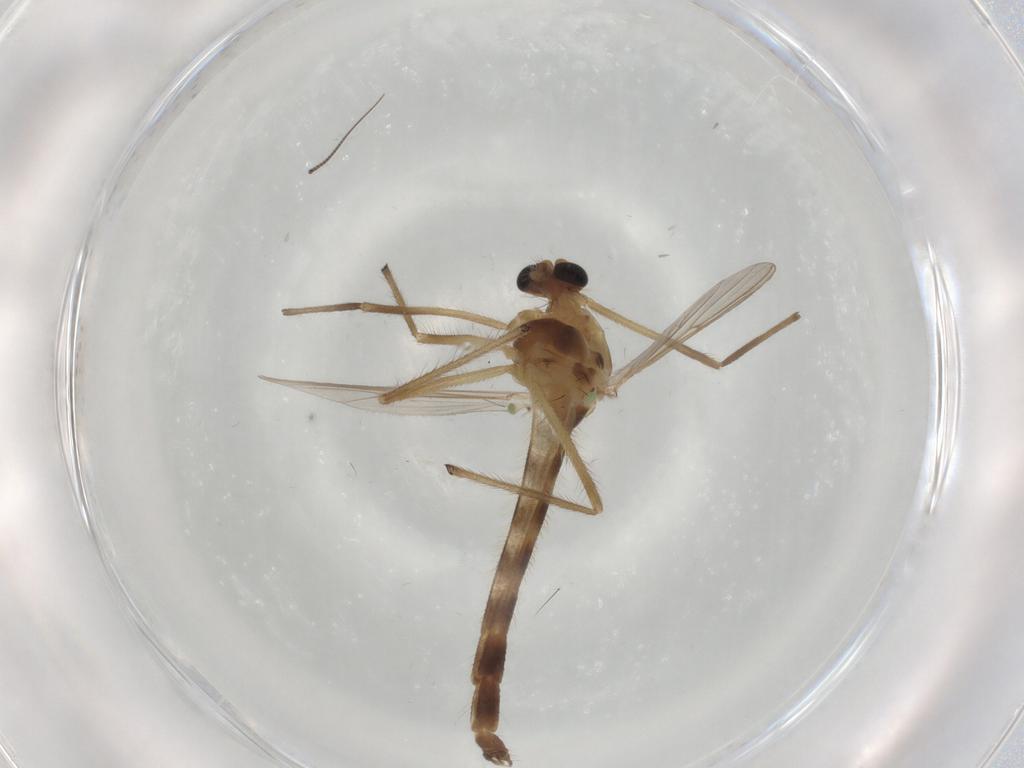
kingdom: Animalia
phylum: Arthropoda
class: Insecta
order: Diptera
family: Chironomidae
